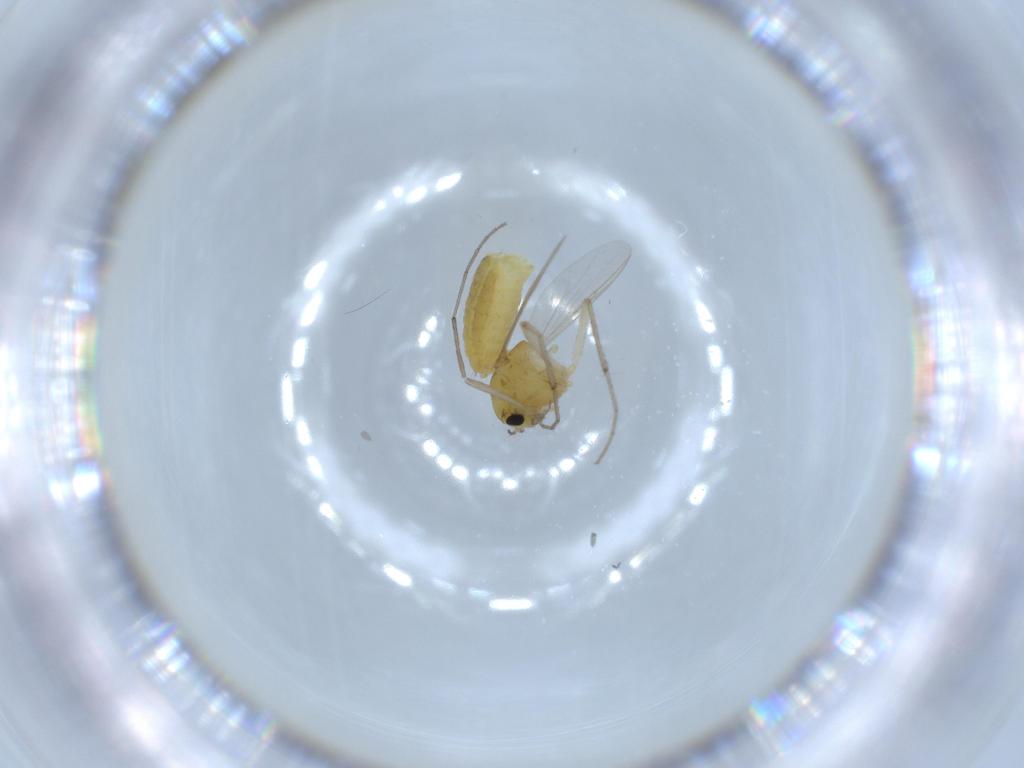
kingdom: Animalia
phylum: Arthropoda
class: Insecta
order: Diptera
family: Chironomidae
